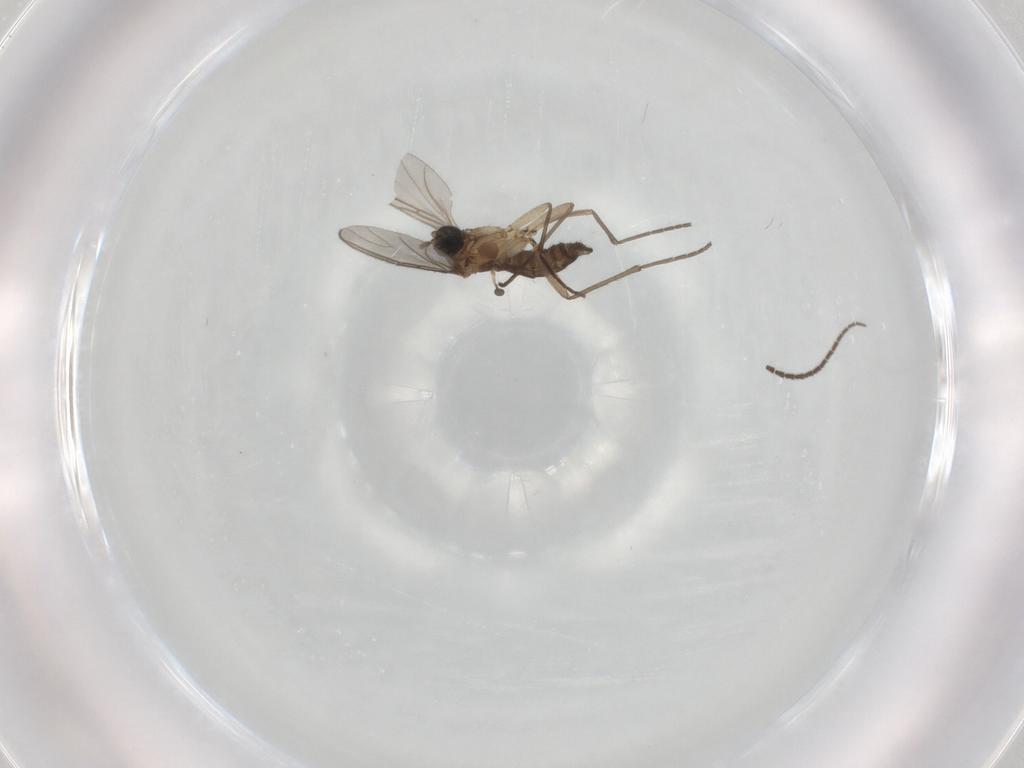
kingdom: Animalia
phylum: Arthropoda
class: Insecta
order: Diptera
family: Sciaridae
